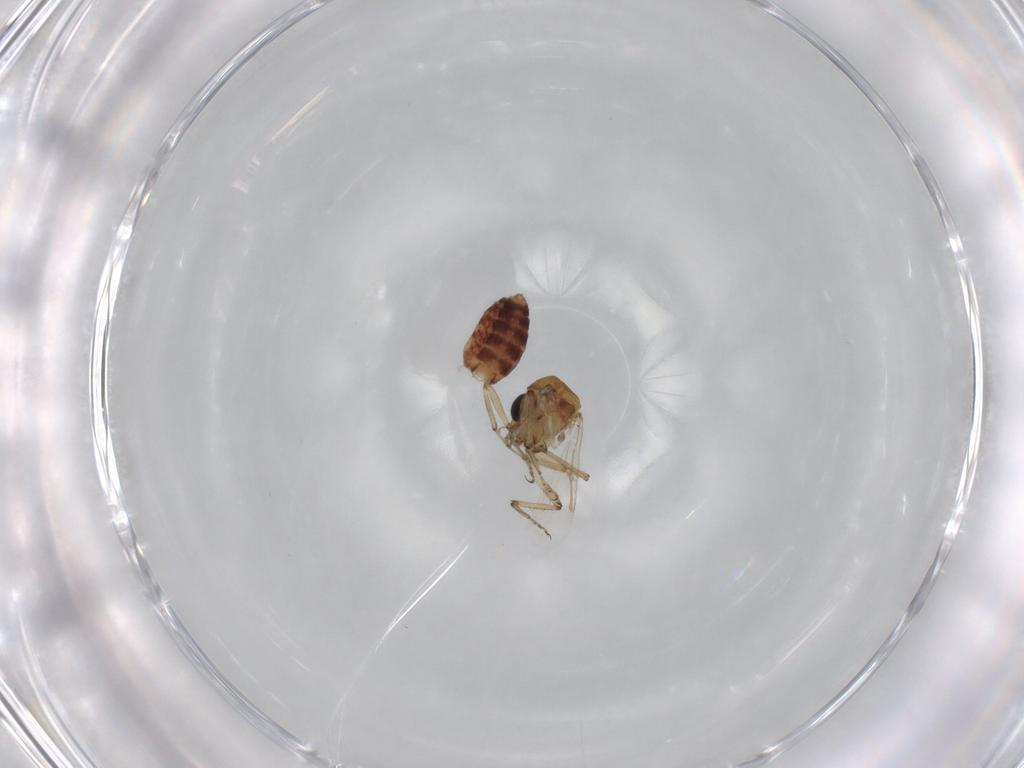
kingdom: Animalia
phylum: Arthropoda
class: Insecta
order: Diptera
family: Ceratopogonidae
